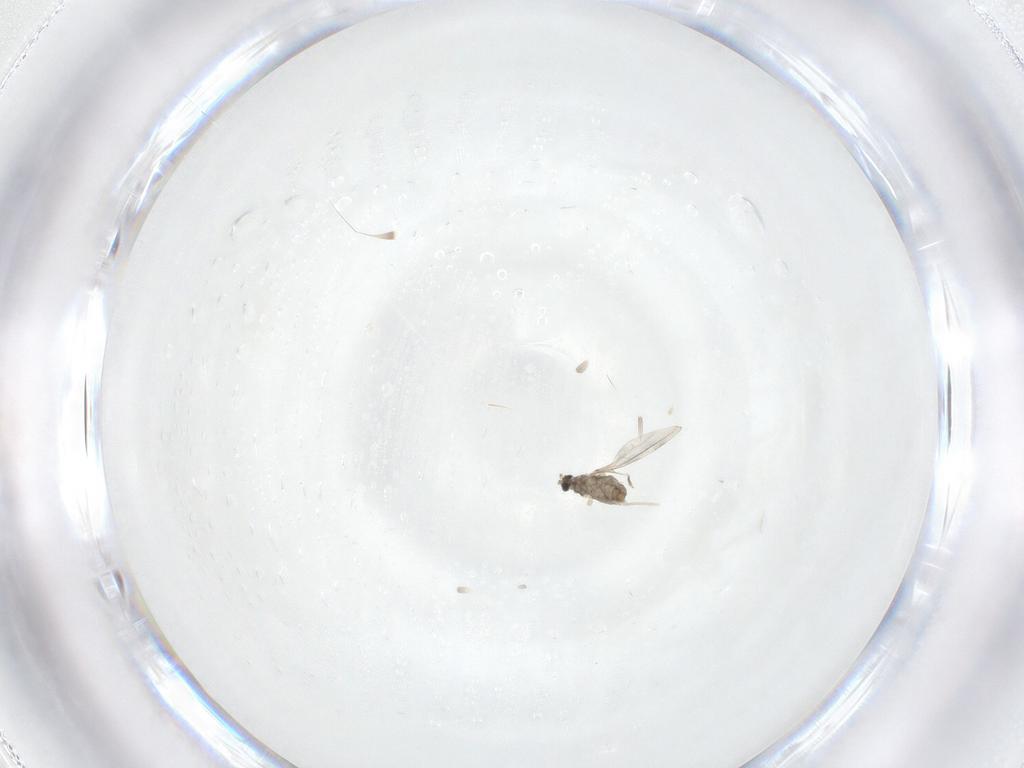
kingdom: Animalia
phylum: Arthropoda
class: Insecta
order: Diptera
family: Cecidomyiidae
